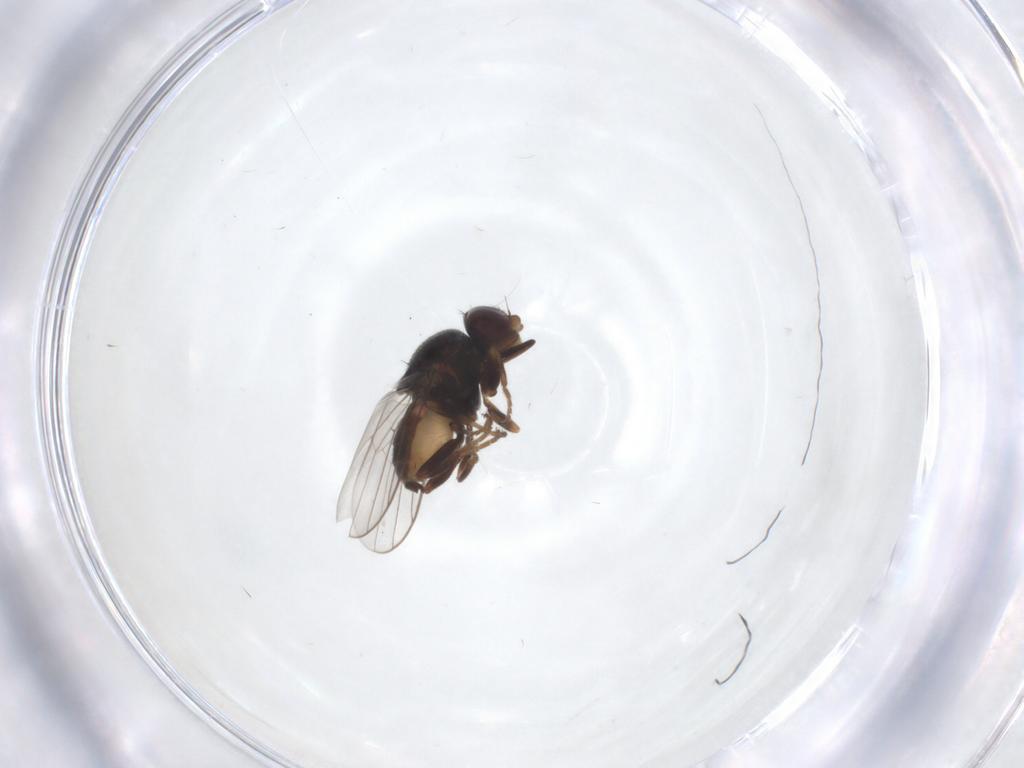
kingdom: Animalia
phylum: Arthropoda
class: Insecta
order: Diptera
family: Chloropidae
